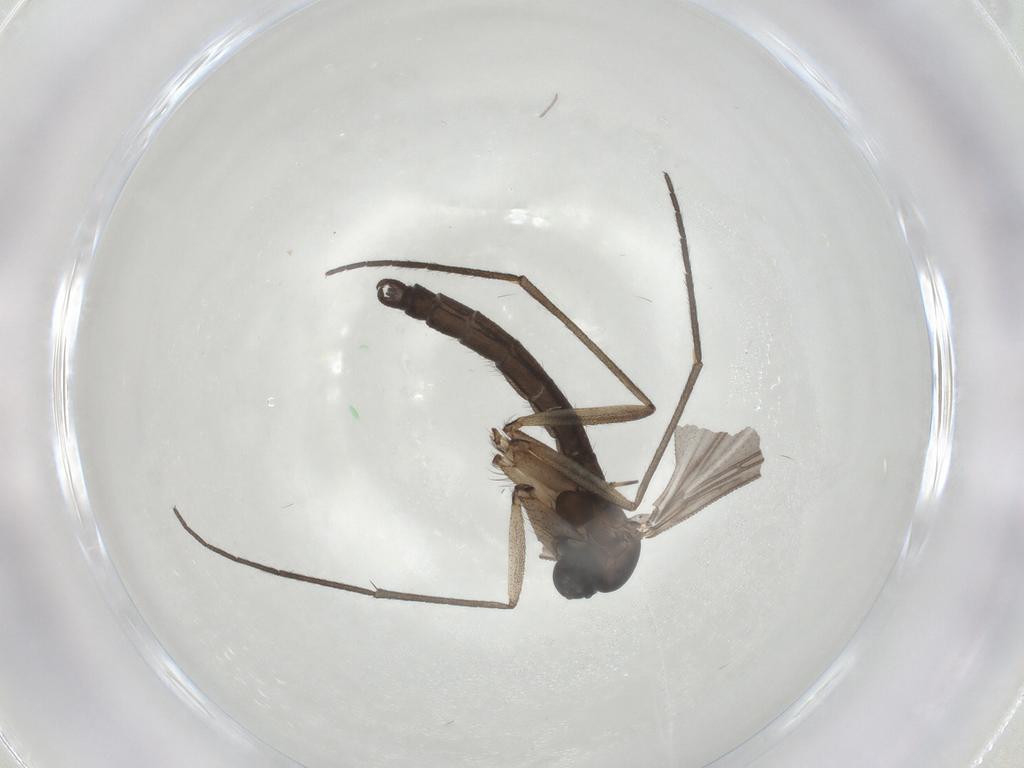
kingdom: Animalia
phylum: Arthropoda
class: Insecta
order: Diptera
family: Sciaridae
